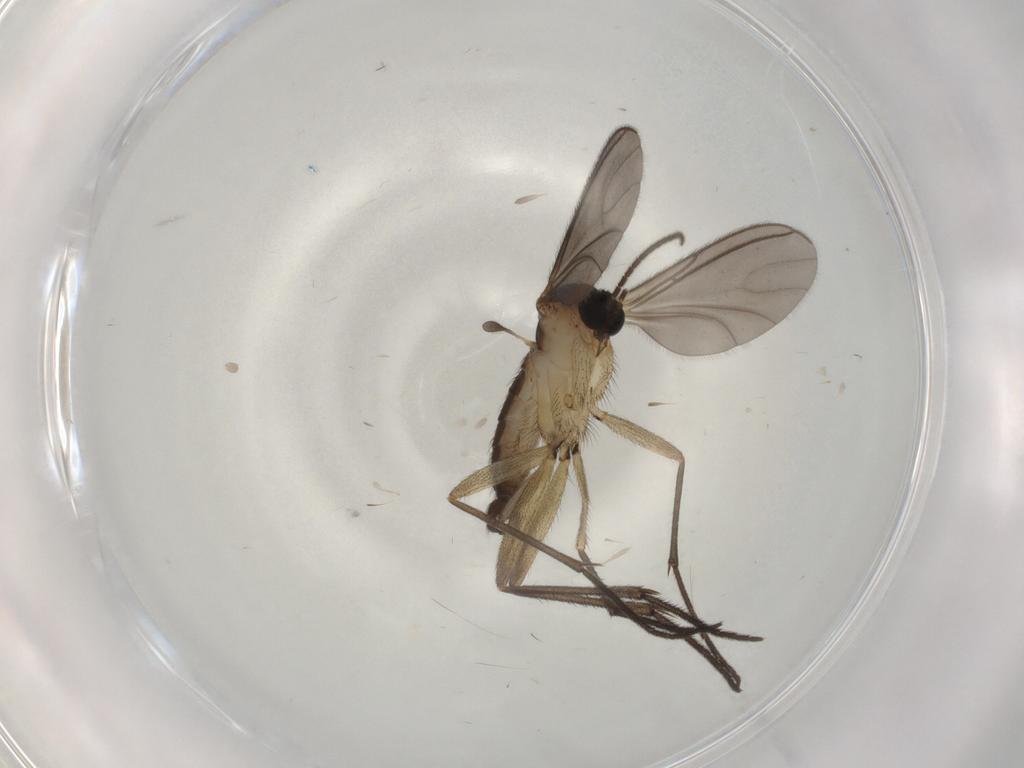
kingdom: Animalia
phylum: Arthropoda
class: Insecta
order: Diptera
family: Sciaridae
